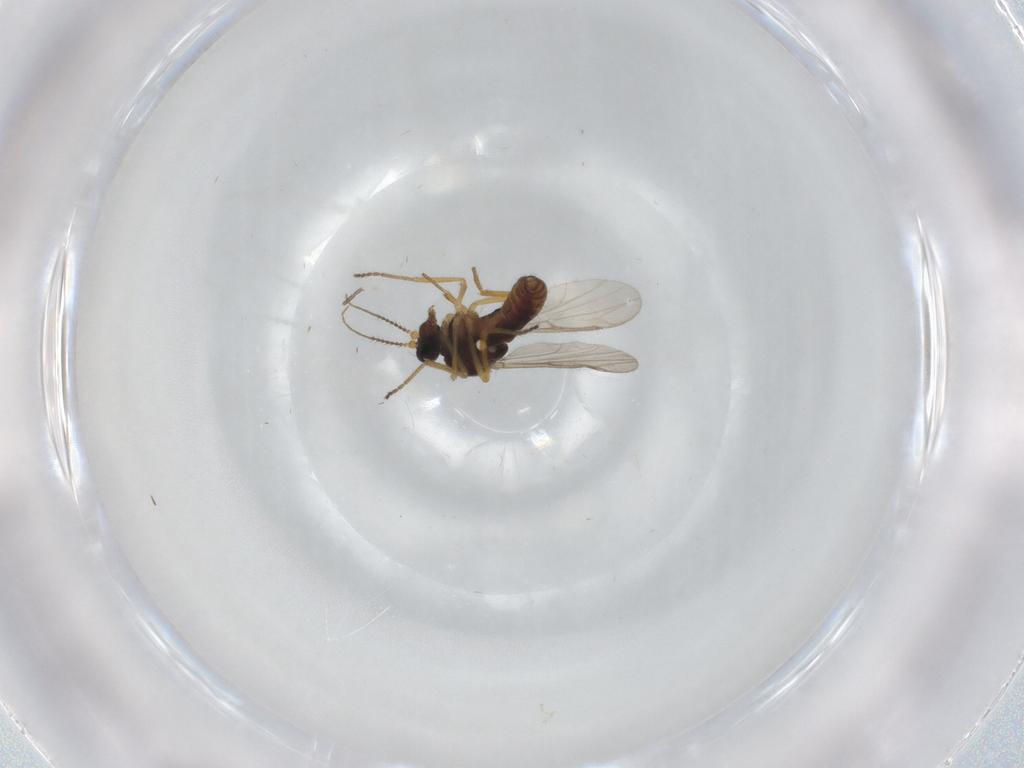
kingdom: Animalia
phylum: Arthropoda
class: Insecta
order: Diptera
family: Ceratopogonidae
